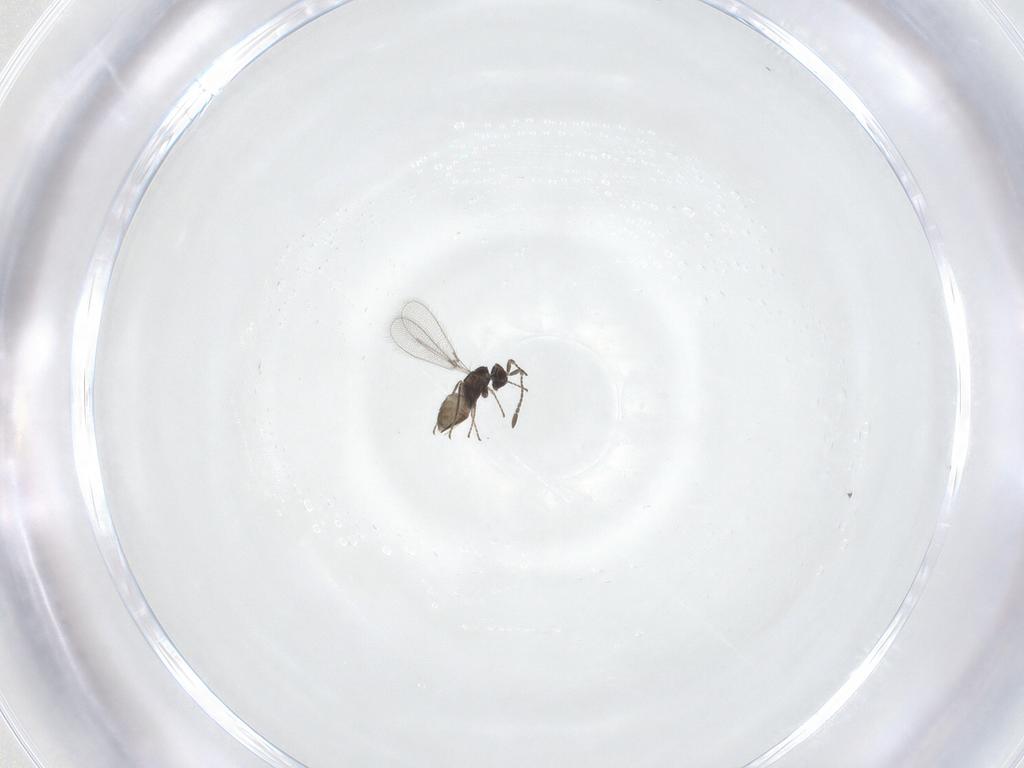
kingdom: Animalia
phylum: Arthropoda
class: Insecta
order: Hymenoptera
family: Mymaridae
